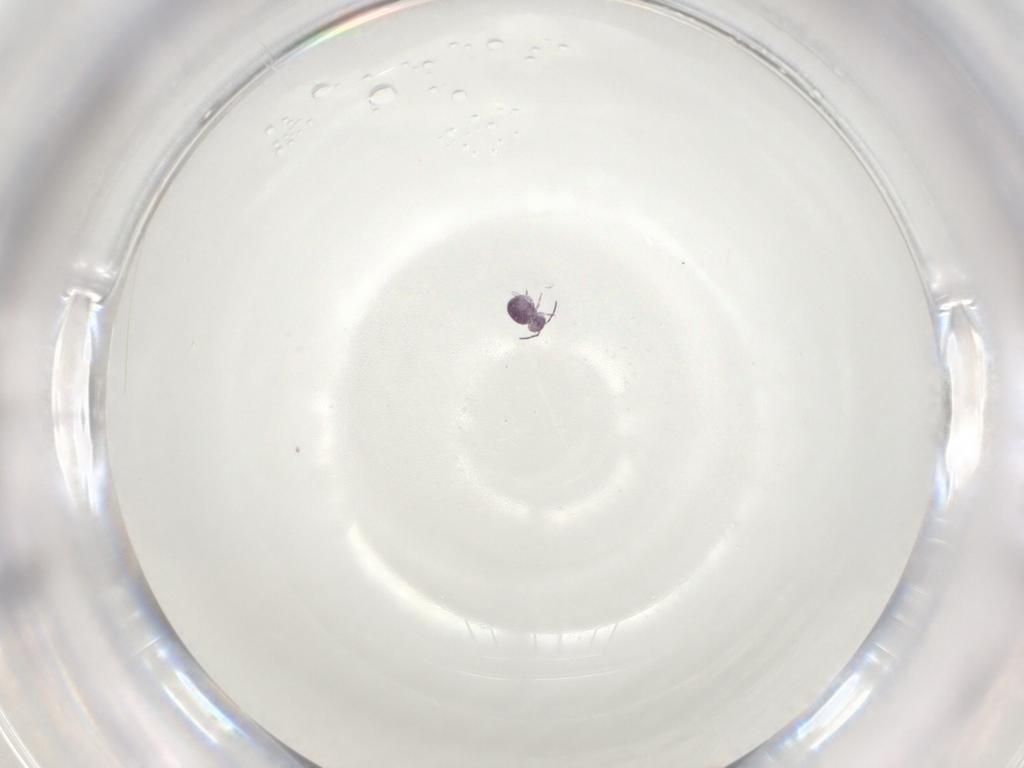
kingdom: Animalia
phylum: Arthropoda
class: Collembola
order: Symphypleona
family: Sminthurididae
